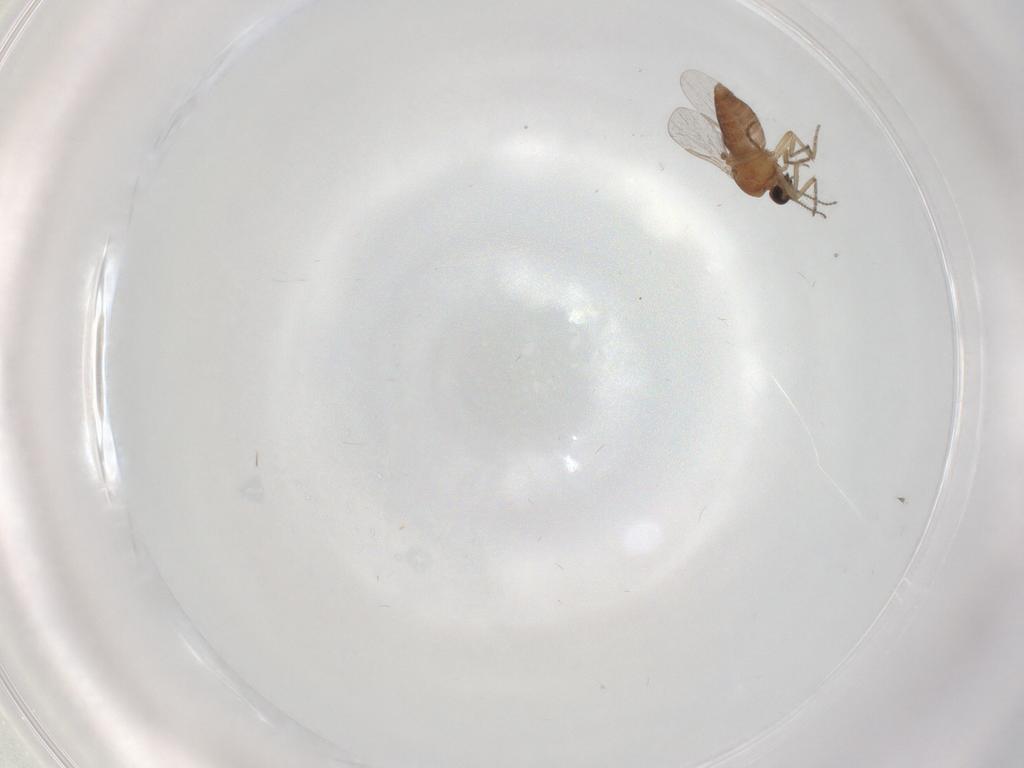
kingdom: Animalia
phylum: Arthropoda
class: Insecta
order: Diptera
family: Ceratopogonidae
